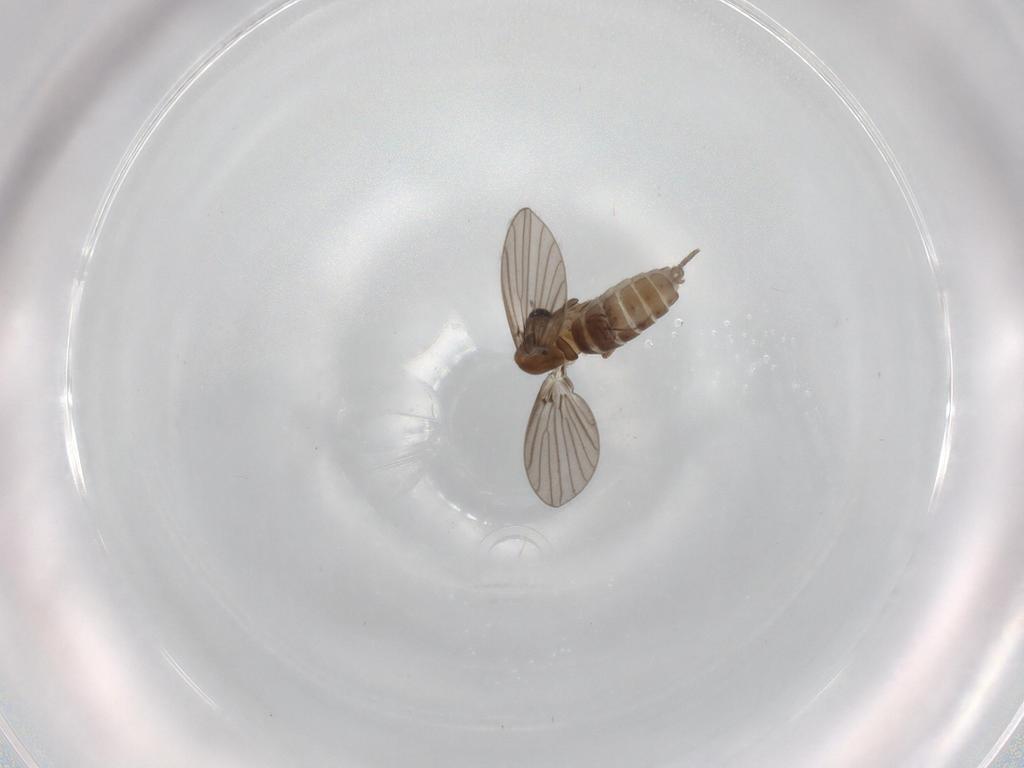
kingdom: Animalia
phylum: Arthropoda
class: Insecta
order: Diptera
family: Psychodidae
